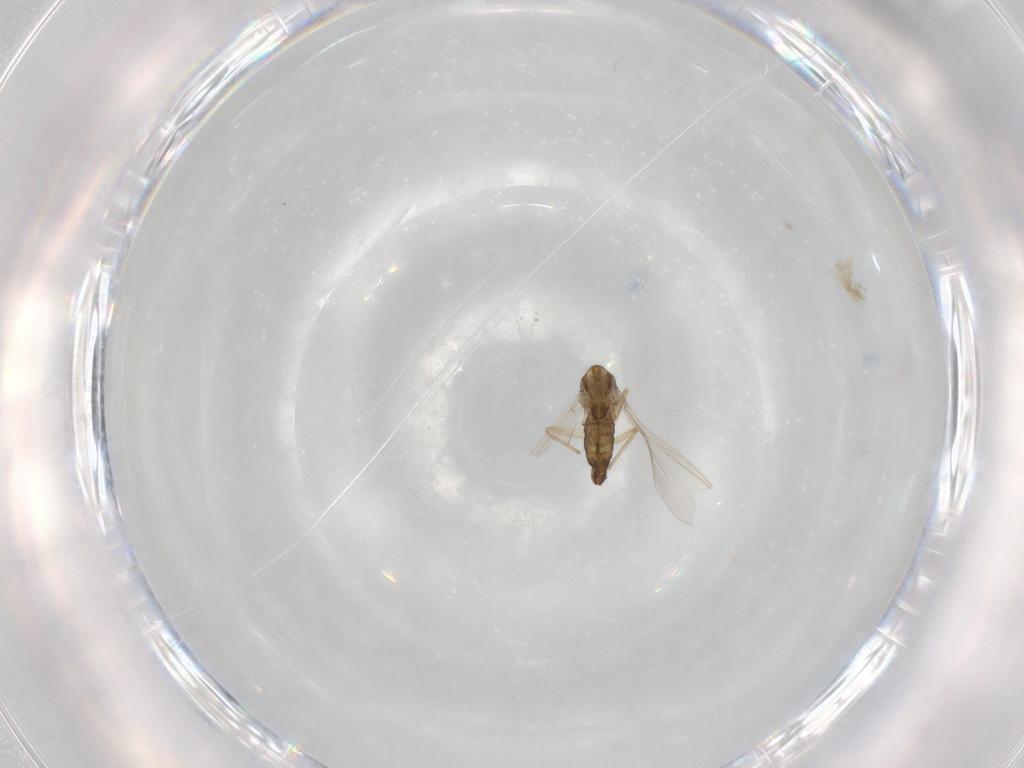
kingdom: Animalia
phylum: Arthropoda
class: Insecta
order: Diptera
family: Chironomidae
